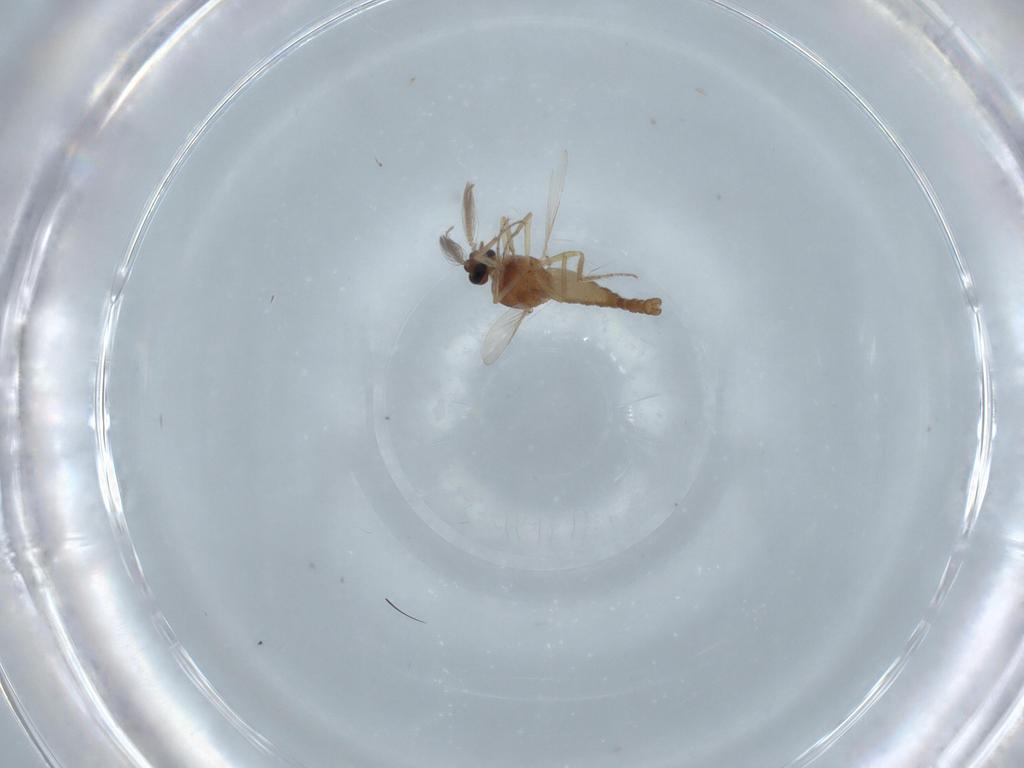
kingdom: Animalia
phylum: Arthropoda
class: Insecta
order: Diptera
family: Ceratopogonidae
